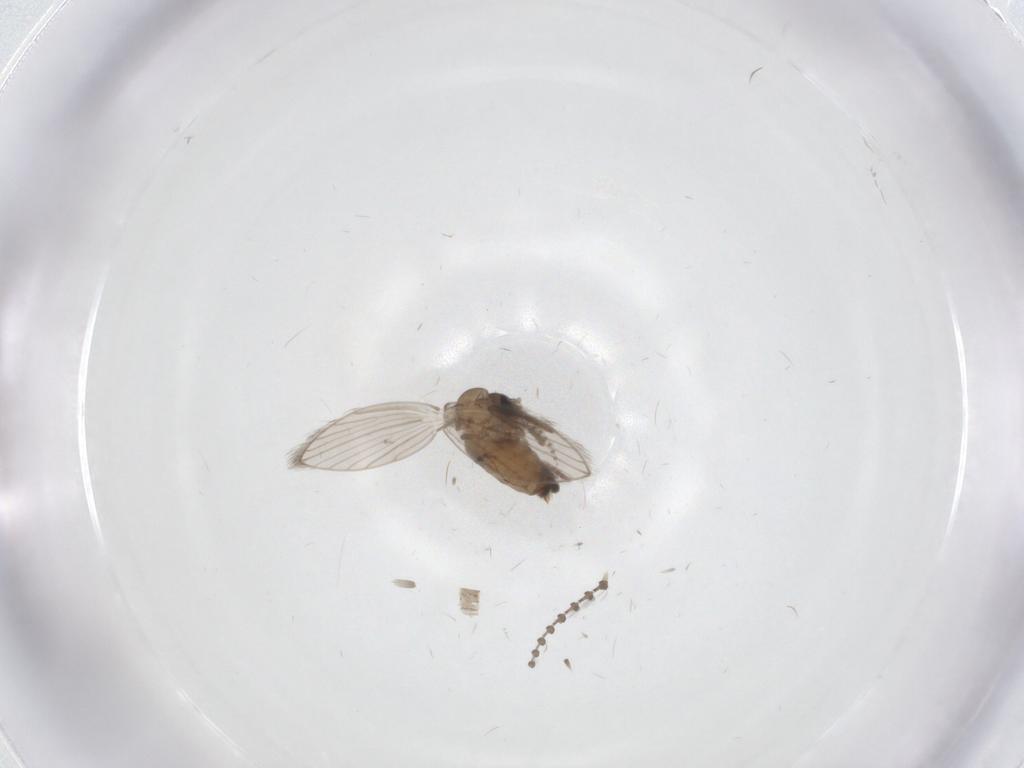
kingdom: Animalia
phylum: Arthropoda
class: Insecta
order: Diptera
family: Psychodidae
